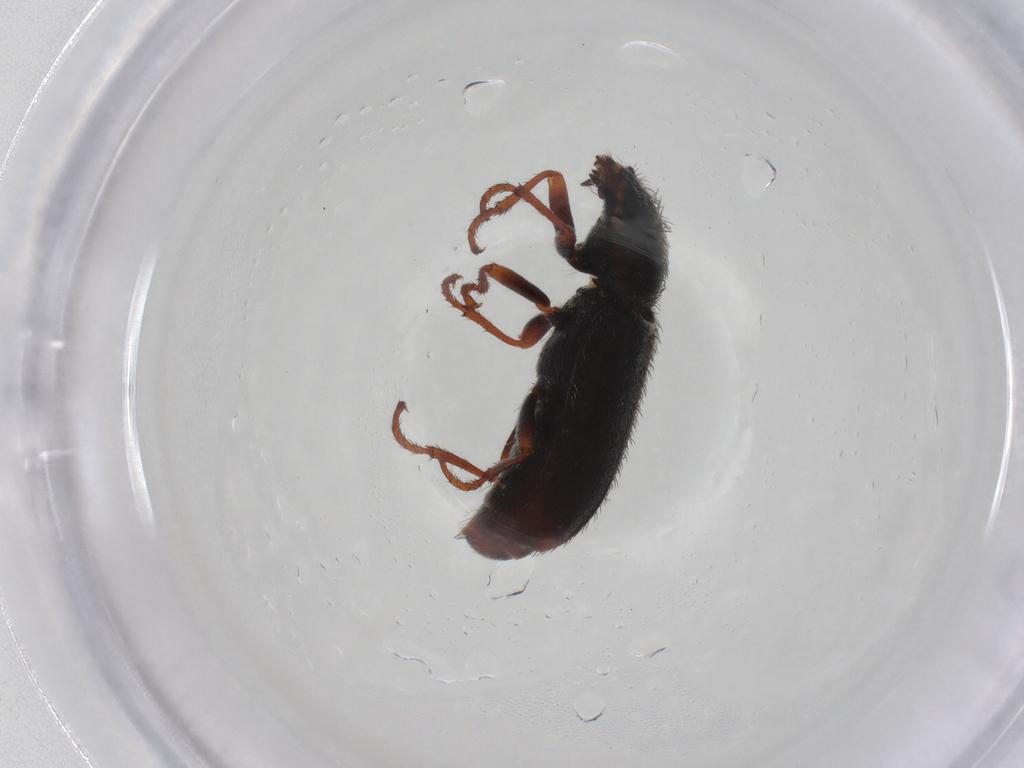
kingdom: Animalia
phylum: Arthropoda
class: Insecta
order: Coleoptera
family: Melyridae
